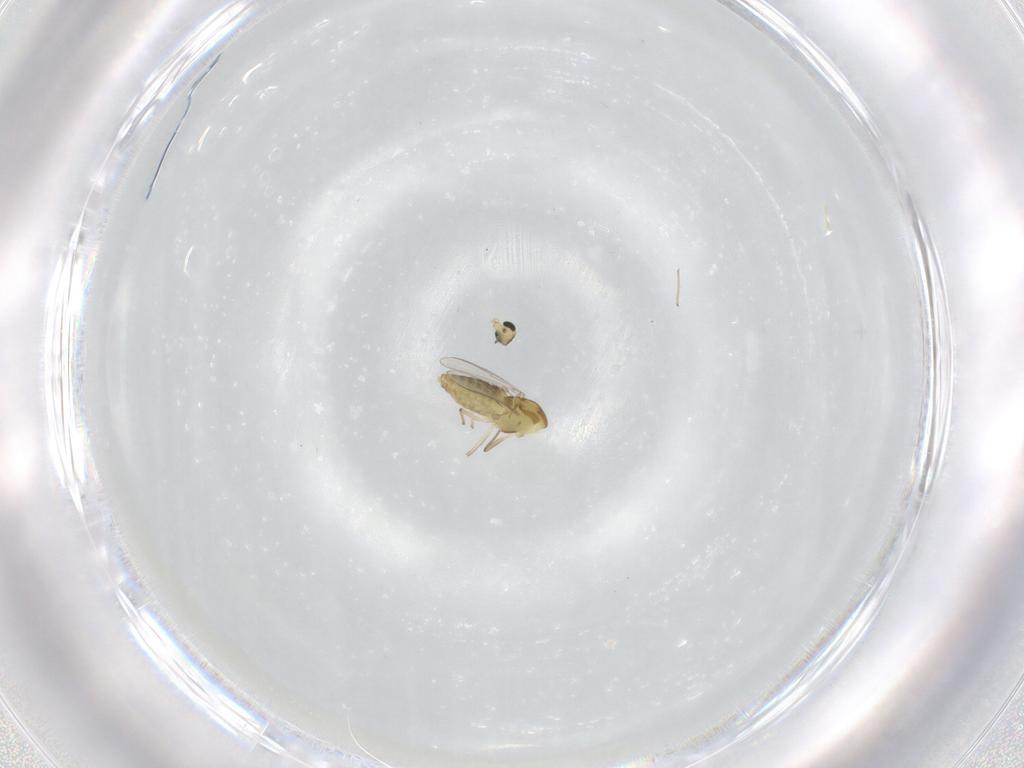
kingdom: Animalia
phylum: Arthropoda
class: Insecta
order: Diptera
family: Chironomidae
